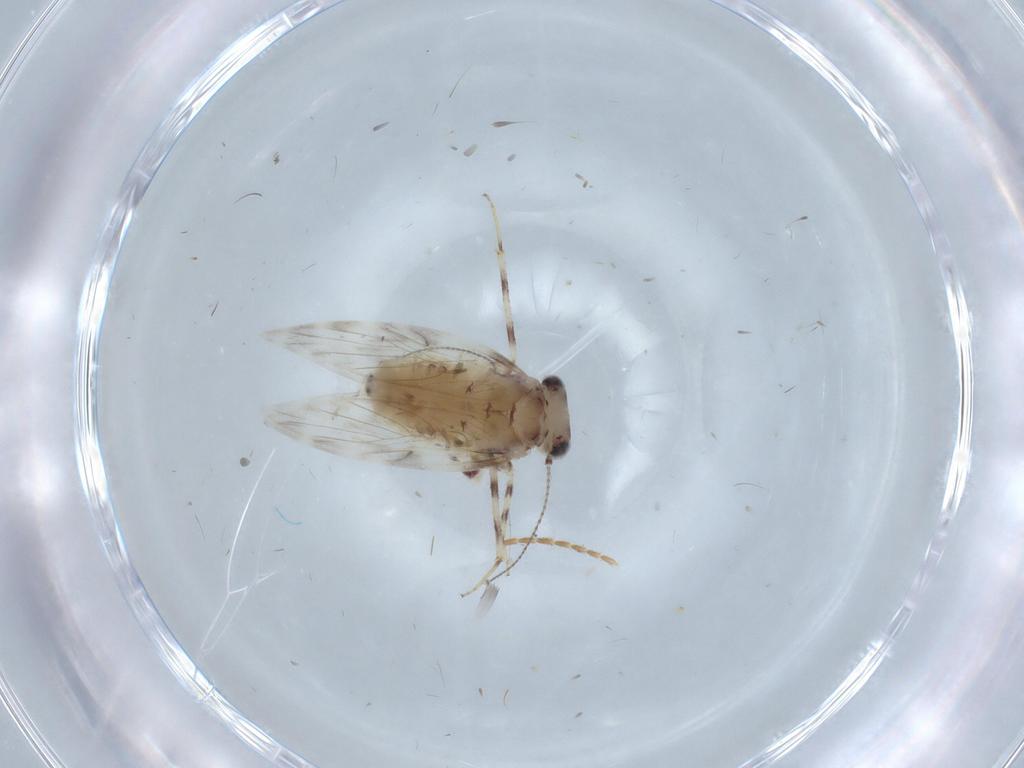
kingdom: Animalia
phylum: Arthropoda
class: Insecta
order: Psocodea
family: Lepidopsocidae
